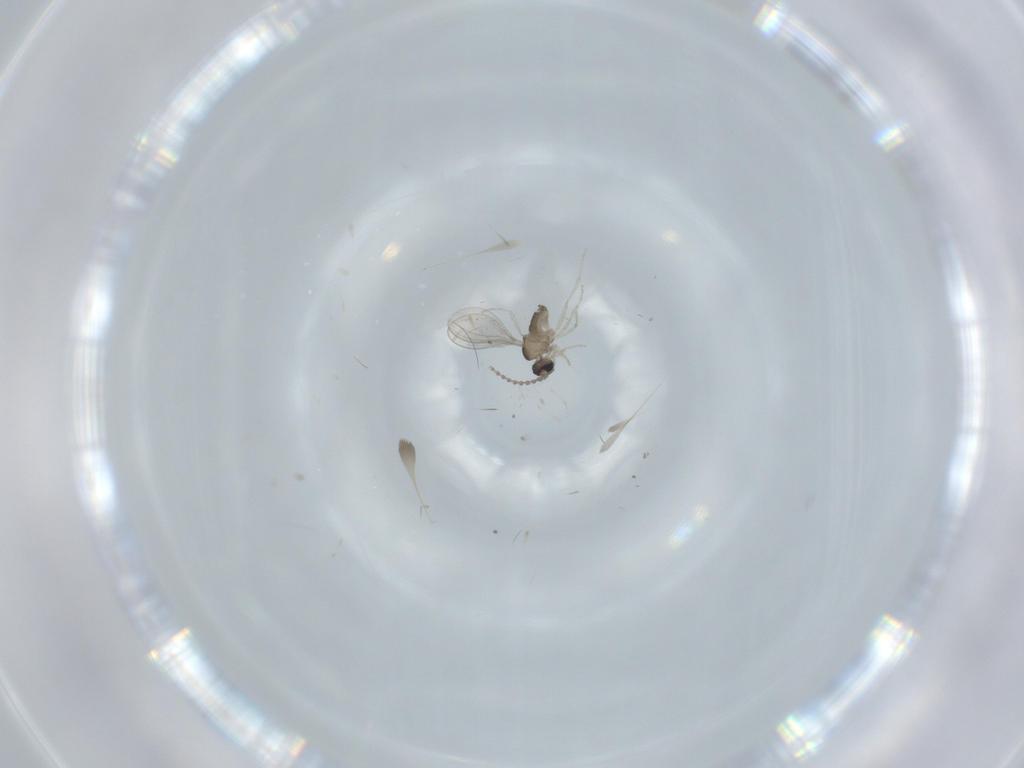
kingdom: Animalia
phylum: Arthropoda
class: Insecta
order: Diptera
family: Cecidomyiidae
